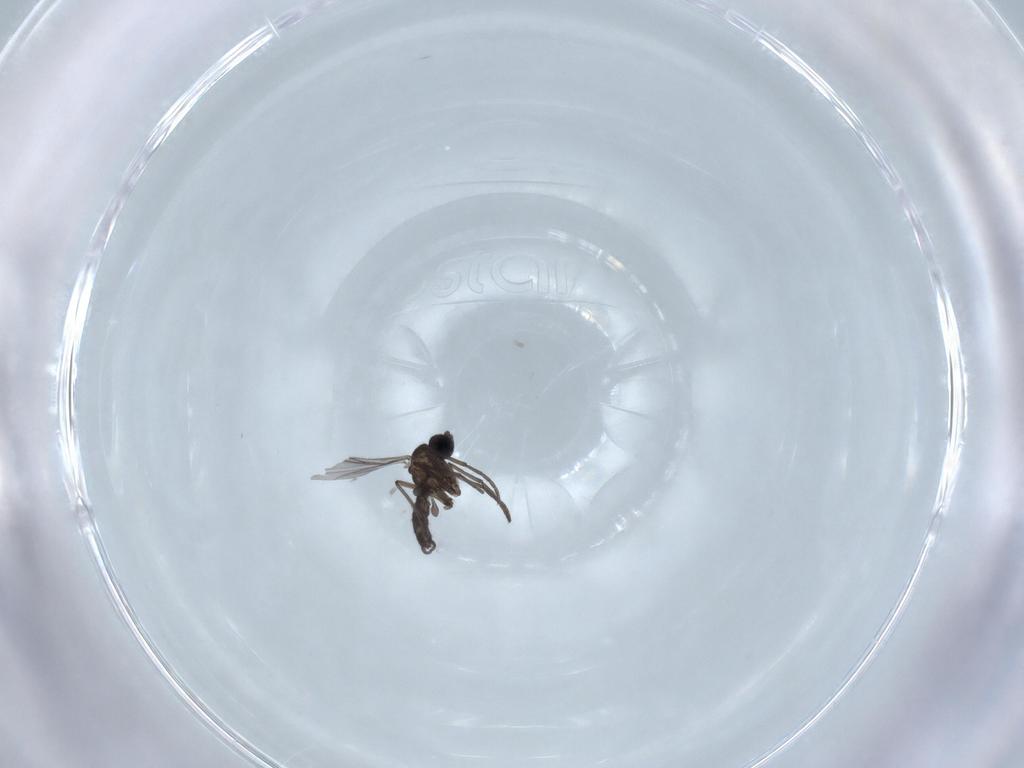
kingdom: Animalia
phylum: Arthropoda
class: Insecta
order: Diptera
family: Sciaridae
